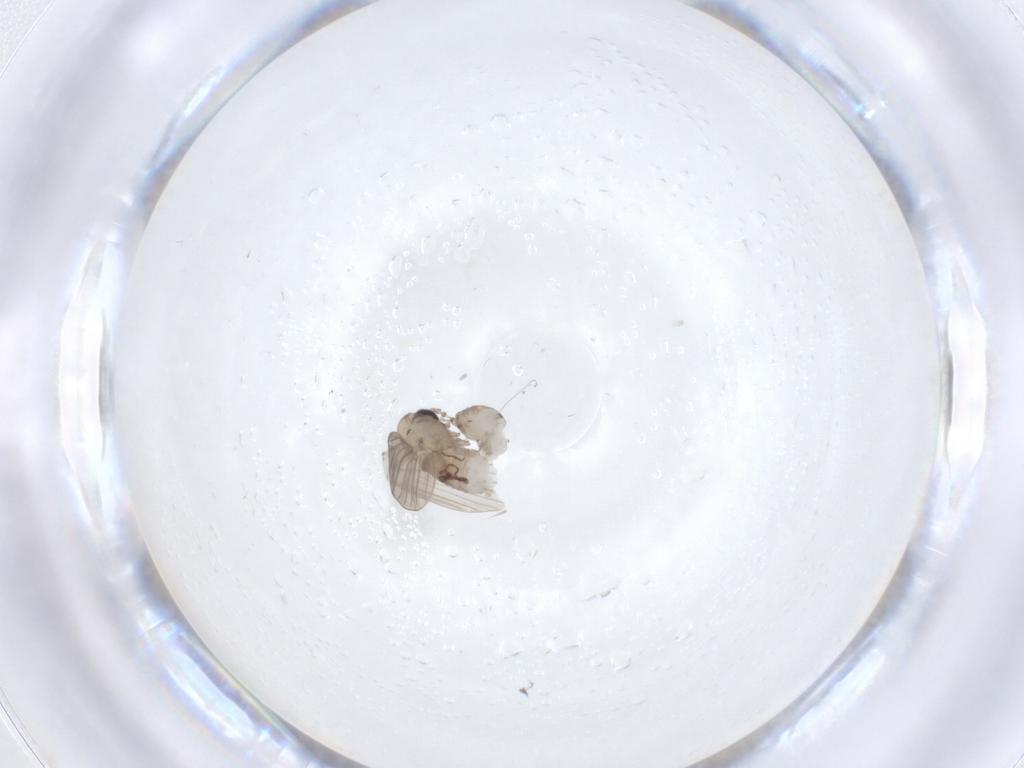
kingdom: Animalia
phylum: Arthropoda
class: Insecta
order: Diptera
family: Psychodidae
